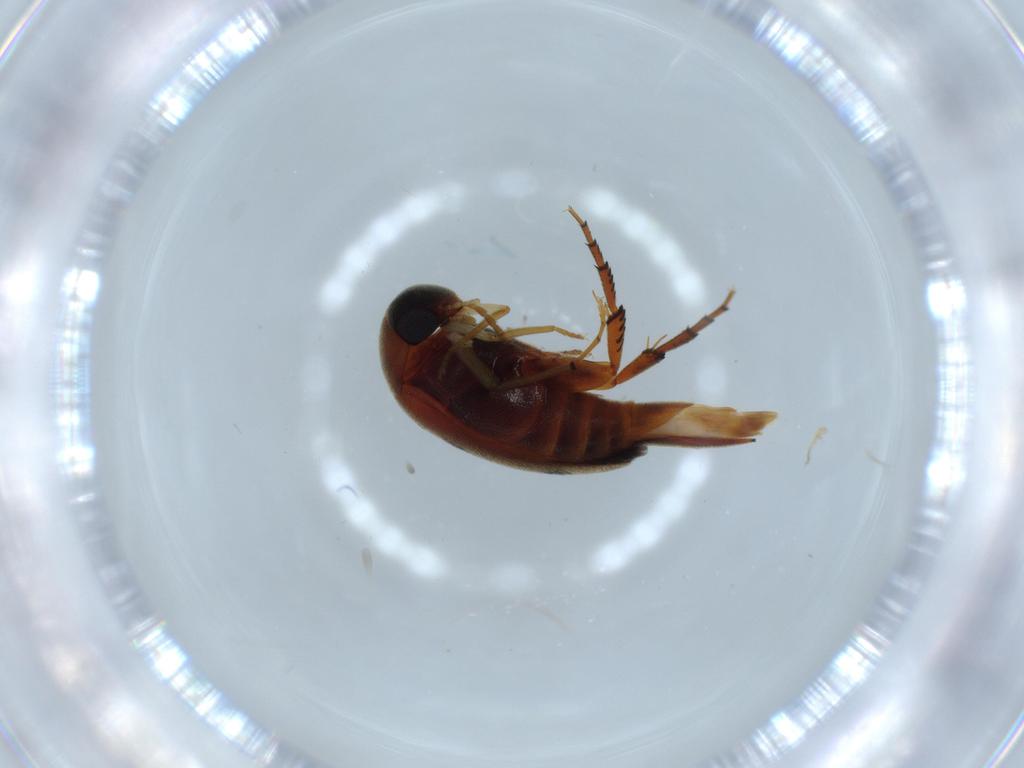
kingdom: Animalia
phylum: Arthropoda
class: Insecta
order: Coleoptera
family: Mordellidae
